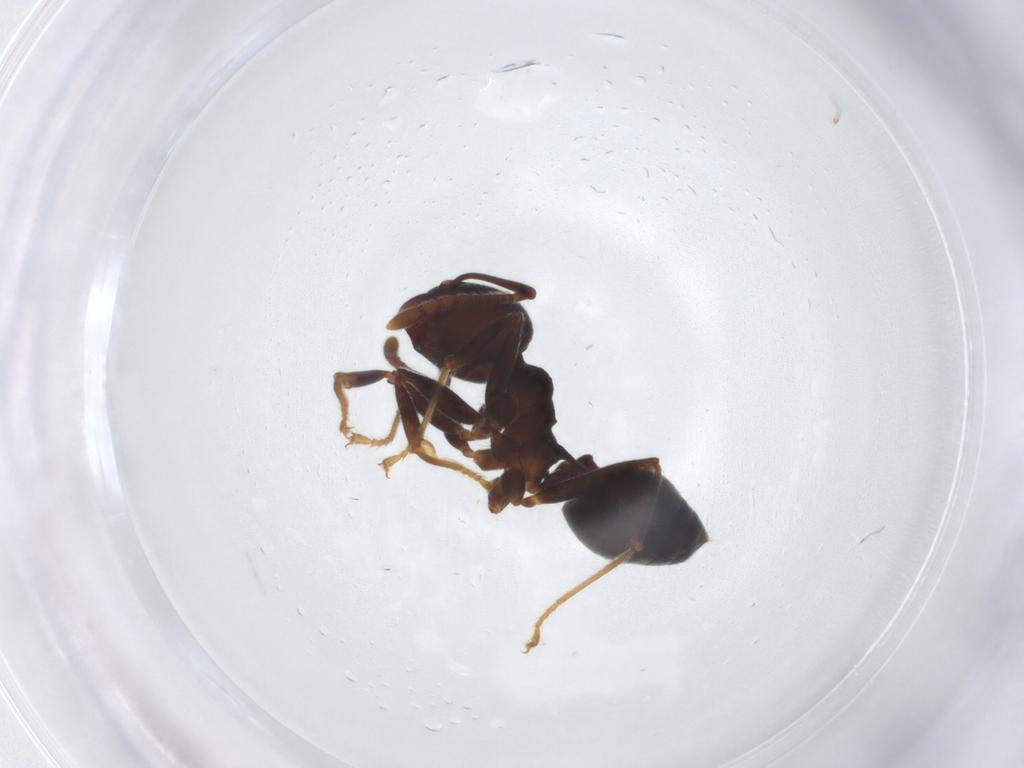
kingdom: Animalia
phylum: Arthropoda
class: Insecta
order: Hymenoptera
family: Formicidae
